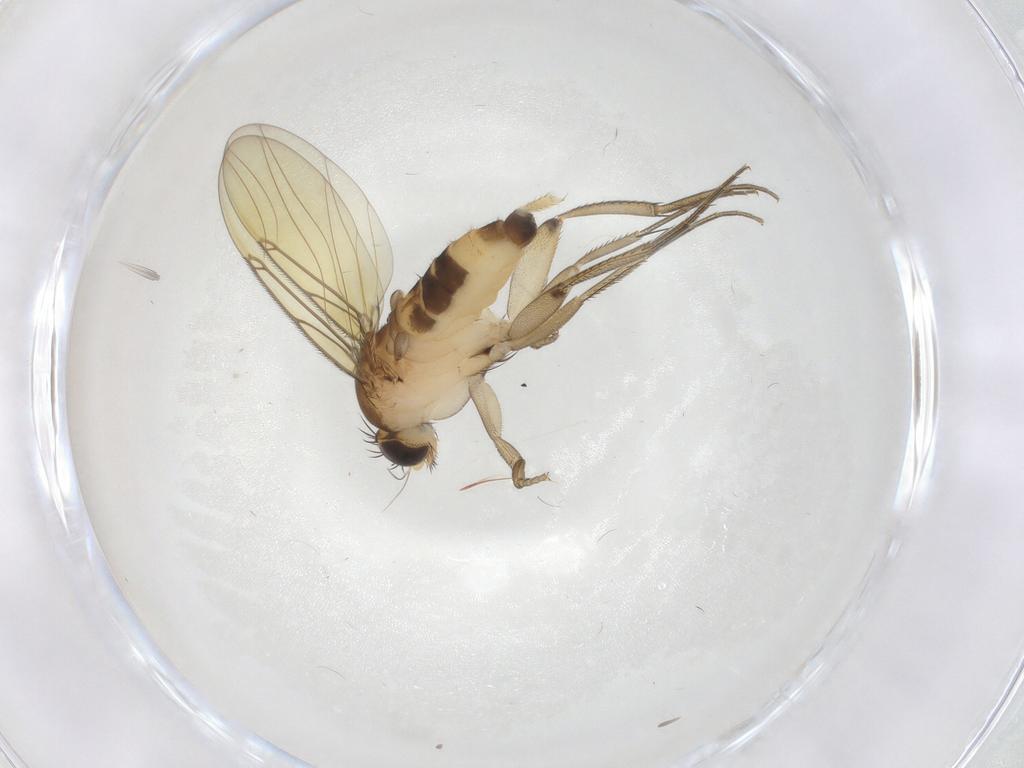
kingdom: Animalia
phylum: Arthropoda
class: Insecta
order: Diptera
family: Phoridae
